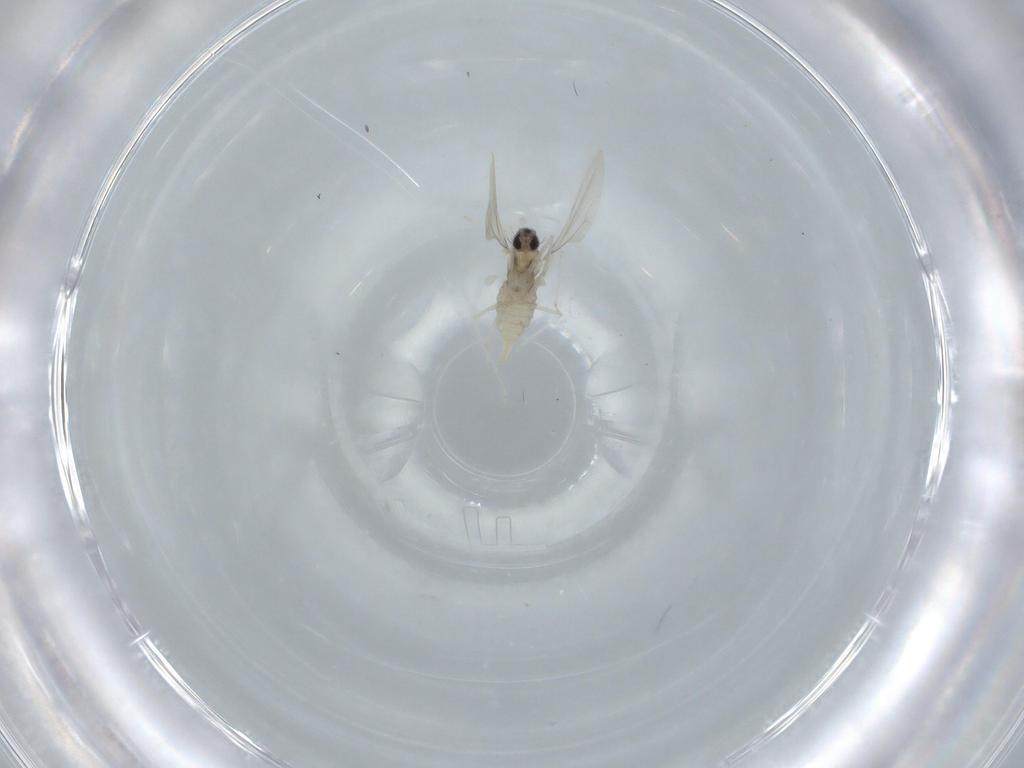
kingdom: Animalia
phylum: Arthropoda
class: Insecta
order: Diptera
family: Cecidomyiidae
